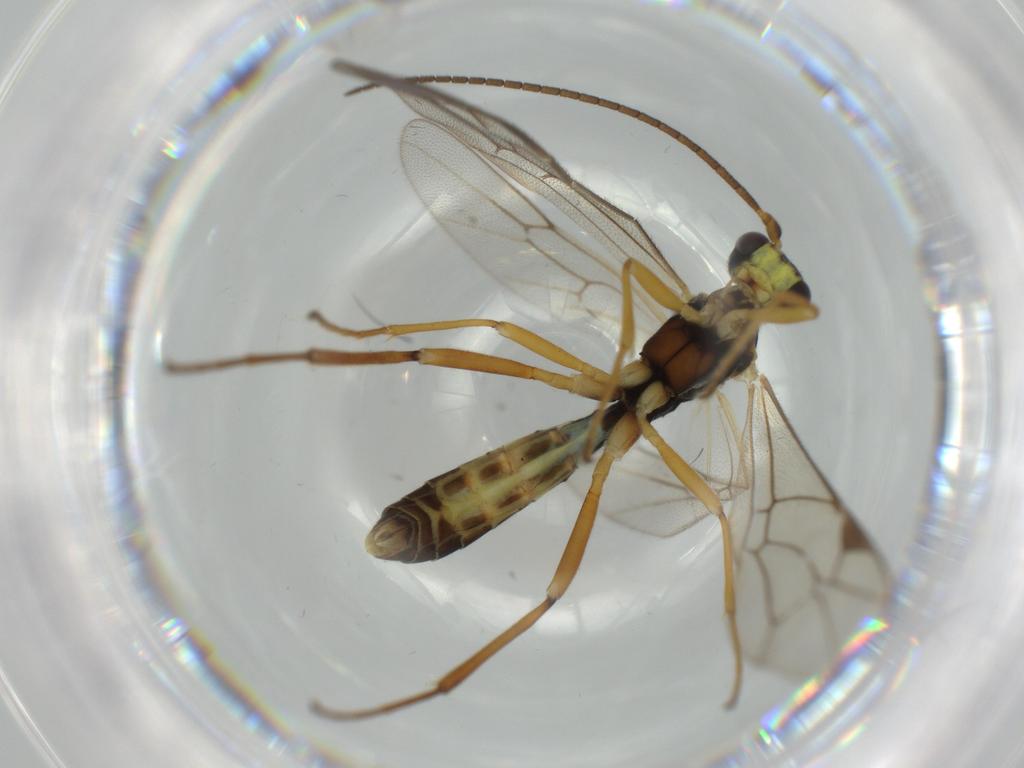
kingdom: Animalia
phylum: Arthropoda
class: Insecta
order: Hymenoptera
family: Ichneumonidae
